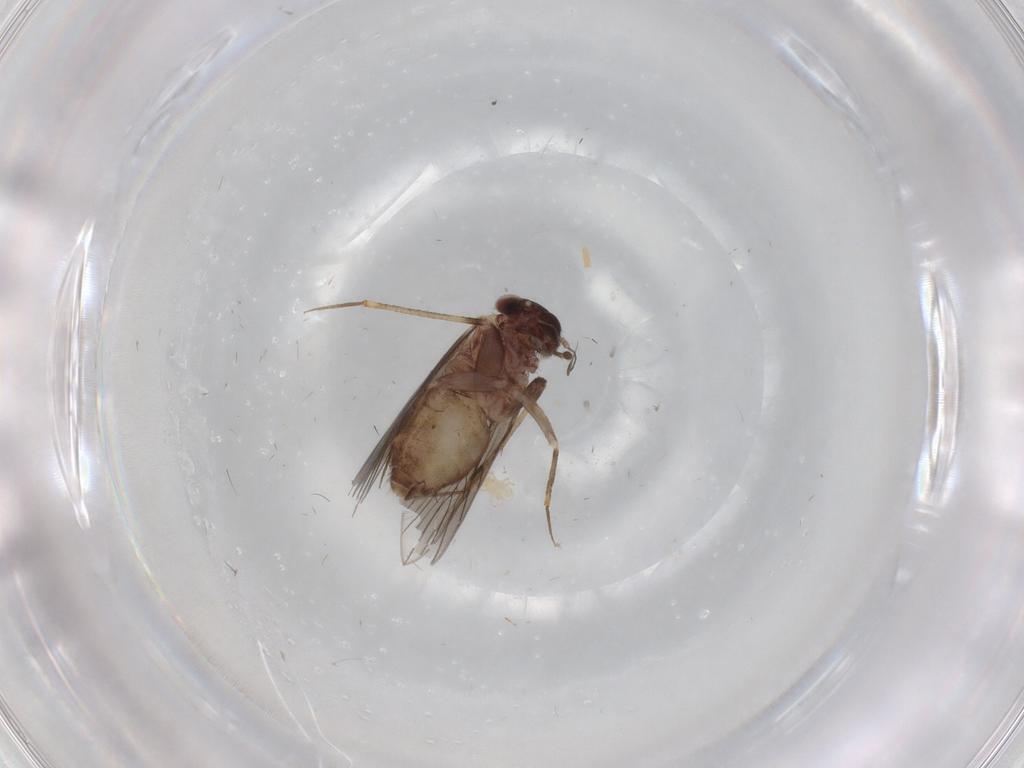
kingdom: Animalia
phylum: Arthropoda
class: Insecta
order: Psocodea
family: Lepidopsocidae
